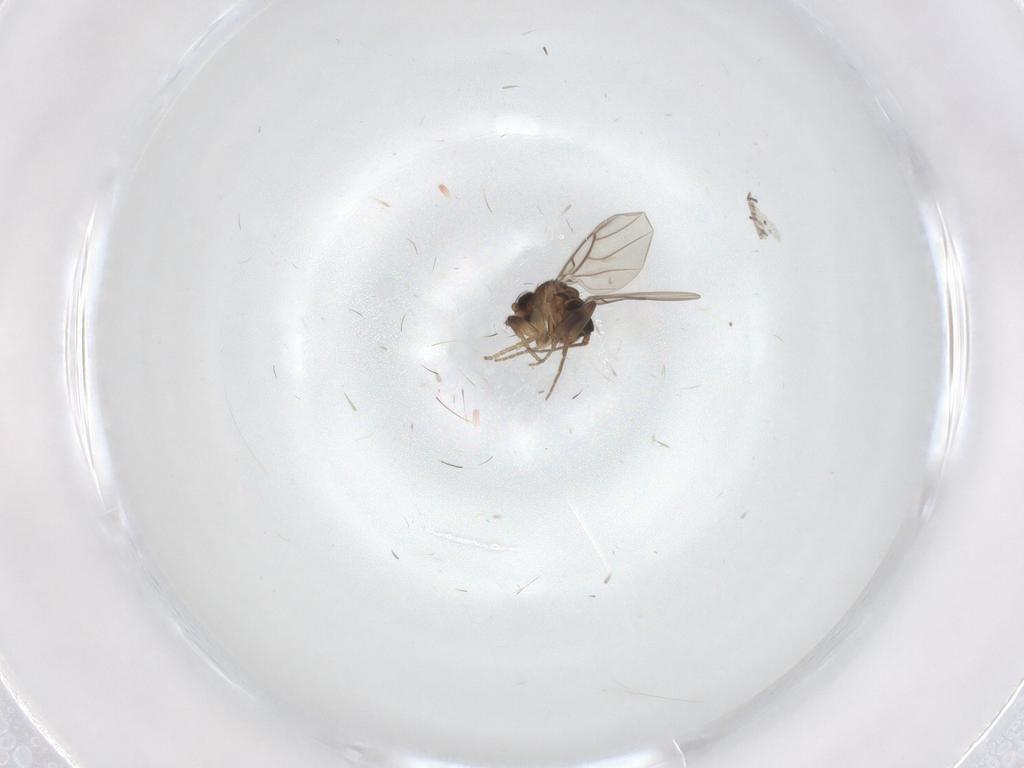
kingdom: Animalia
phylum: Arthropoda
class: Insecta
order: Diptera
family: Phoridae
